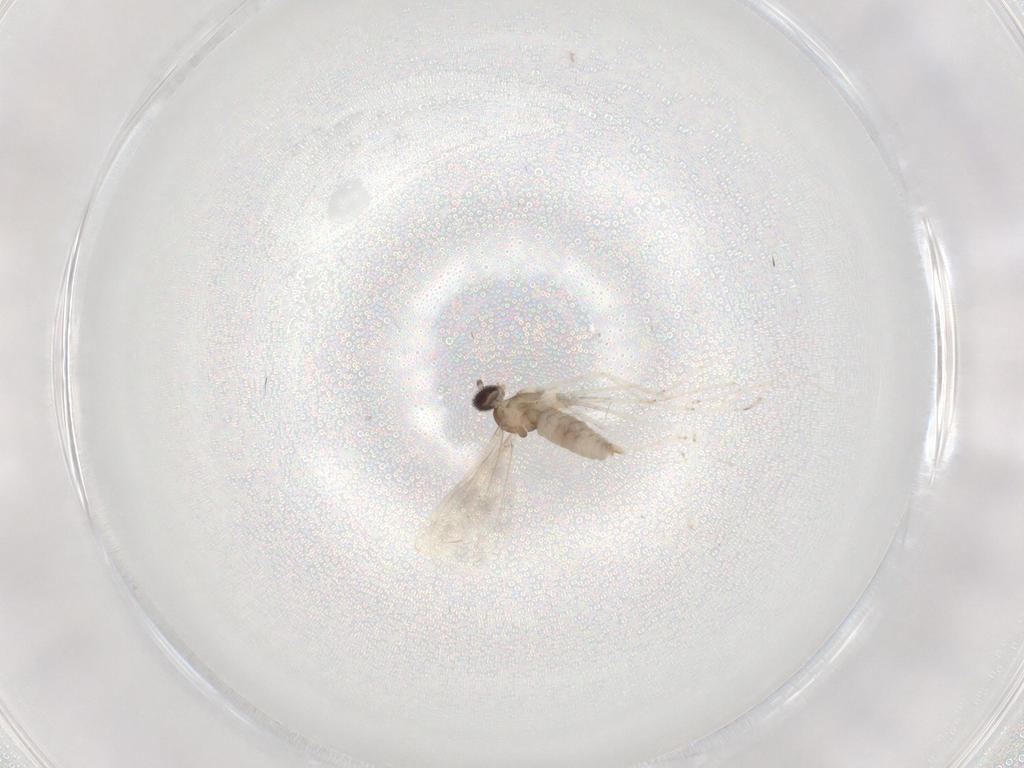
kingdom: Animalia
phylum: Arthropoda
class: Insecta
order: Diptera
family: Cecidomyiidae
